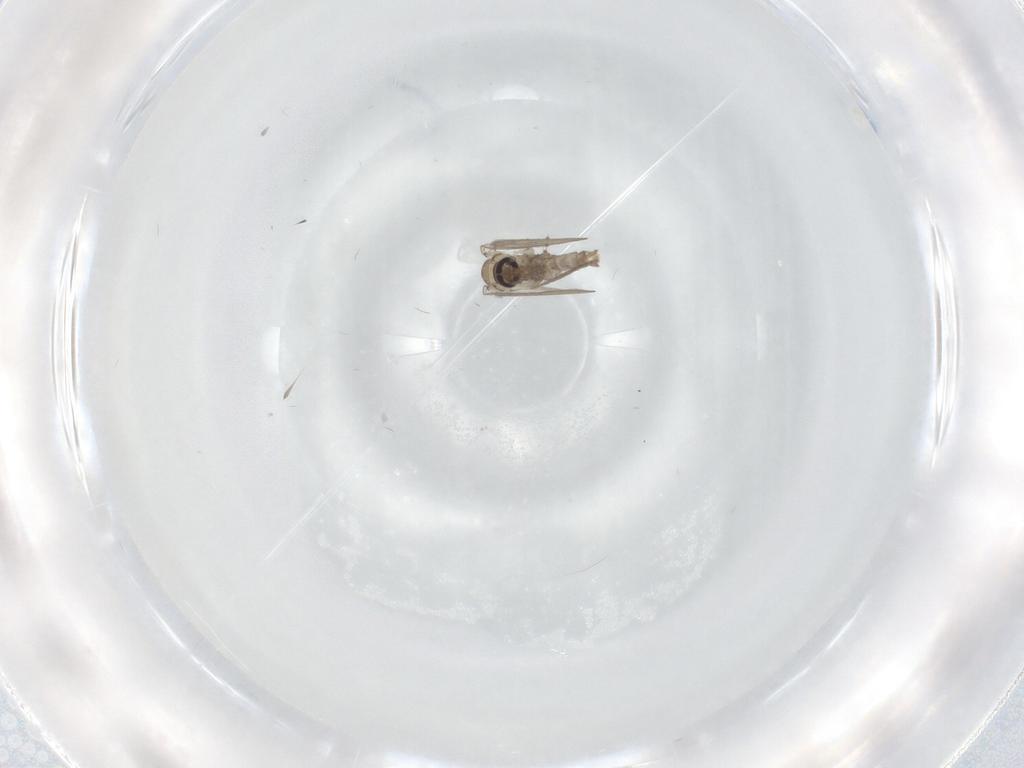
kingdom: Animalia
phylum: Arthropoda
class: Insecta
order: Diptera
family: Psychodidae
